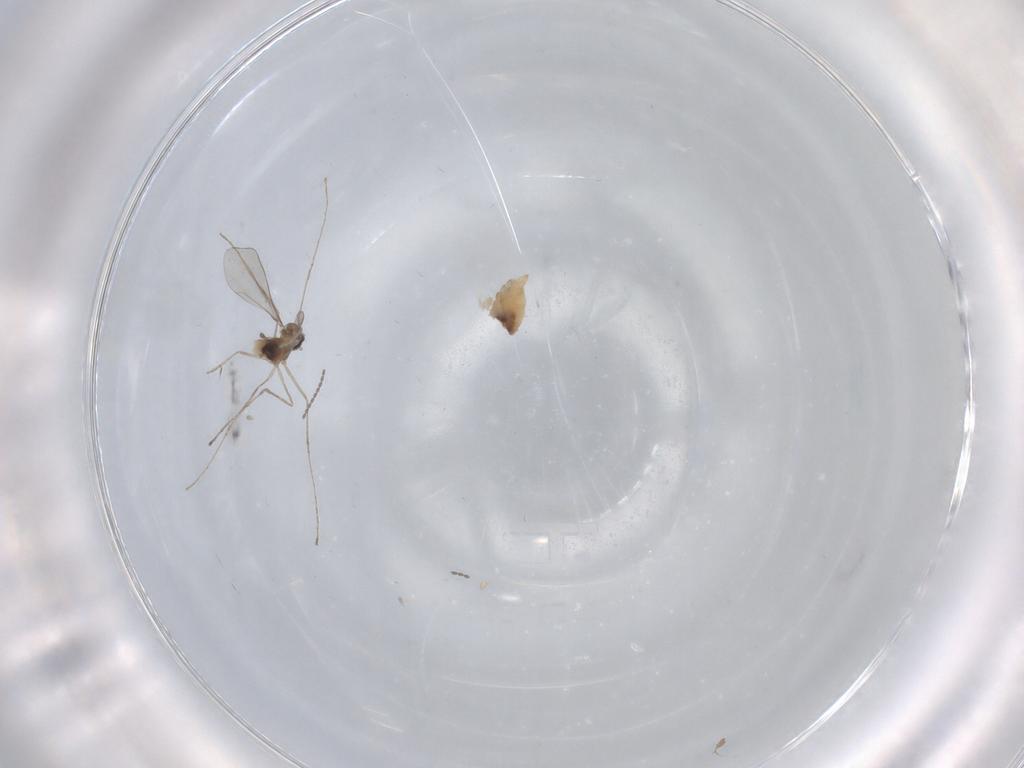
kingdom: Animalia
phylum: Arthropoda
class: Insecta
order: Diptera
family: Cecidomyiidae
